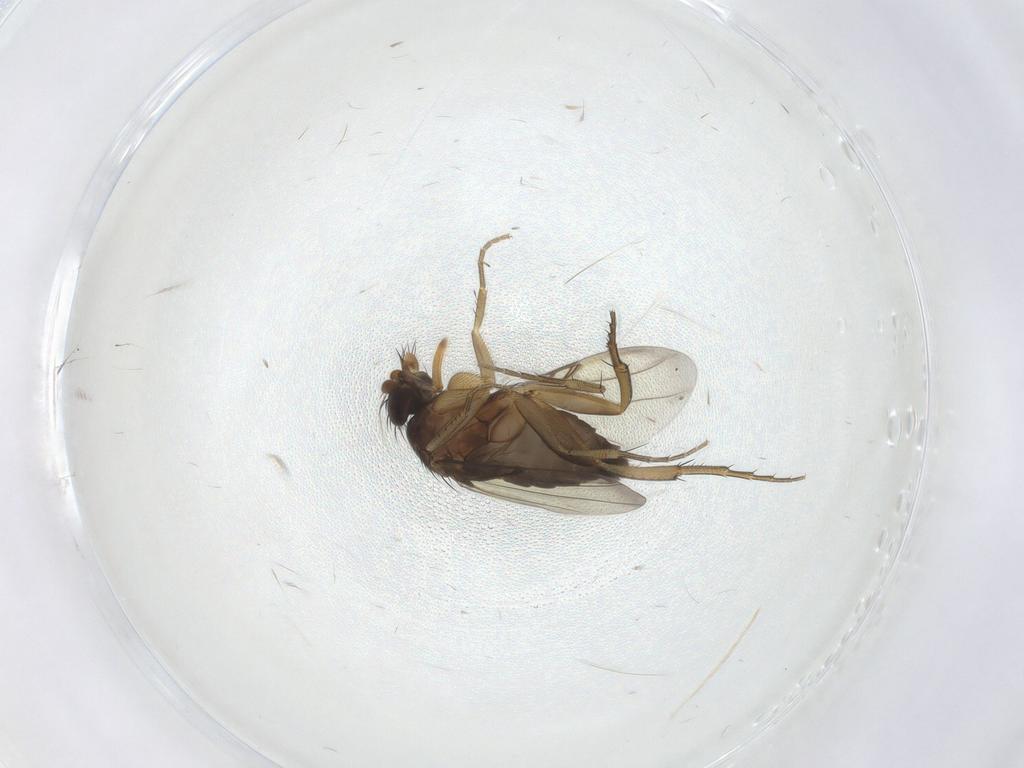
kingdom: Animalia
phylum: Arthropoda
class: Insecta
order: Diptera
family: Phoridae
